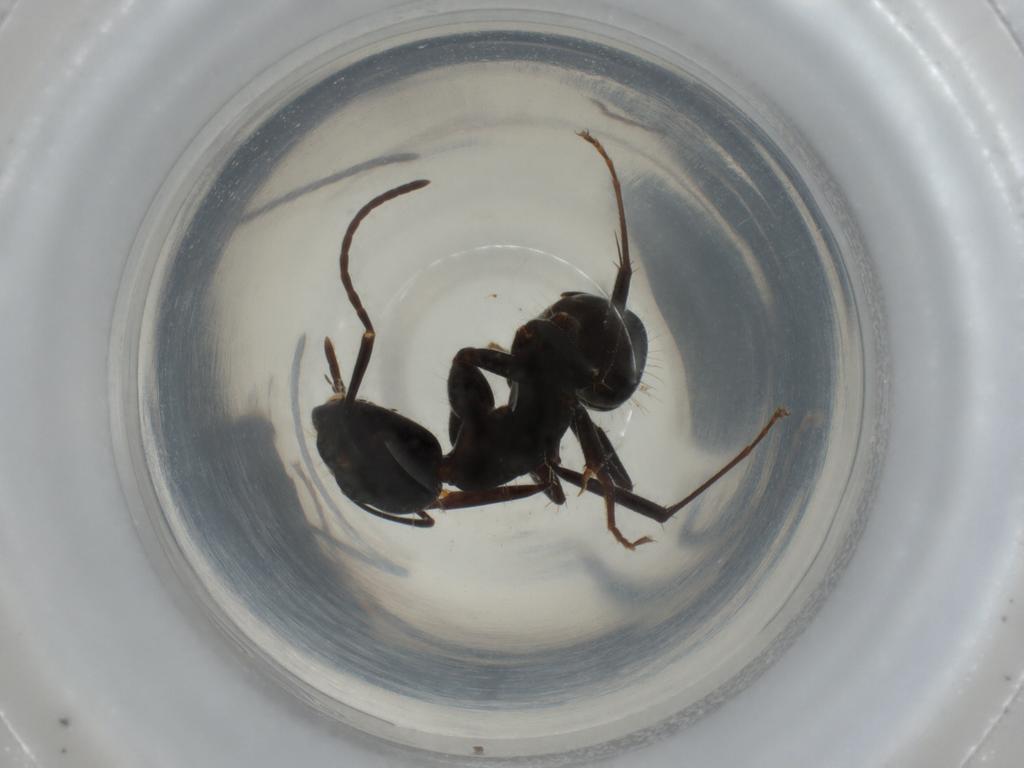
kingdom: Animalia
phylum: Arthropoda
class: Insecta
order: Hymenoptera
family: Formicidae
